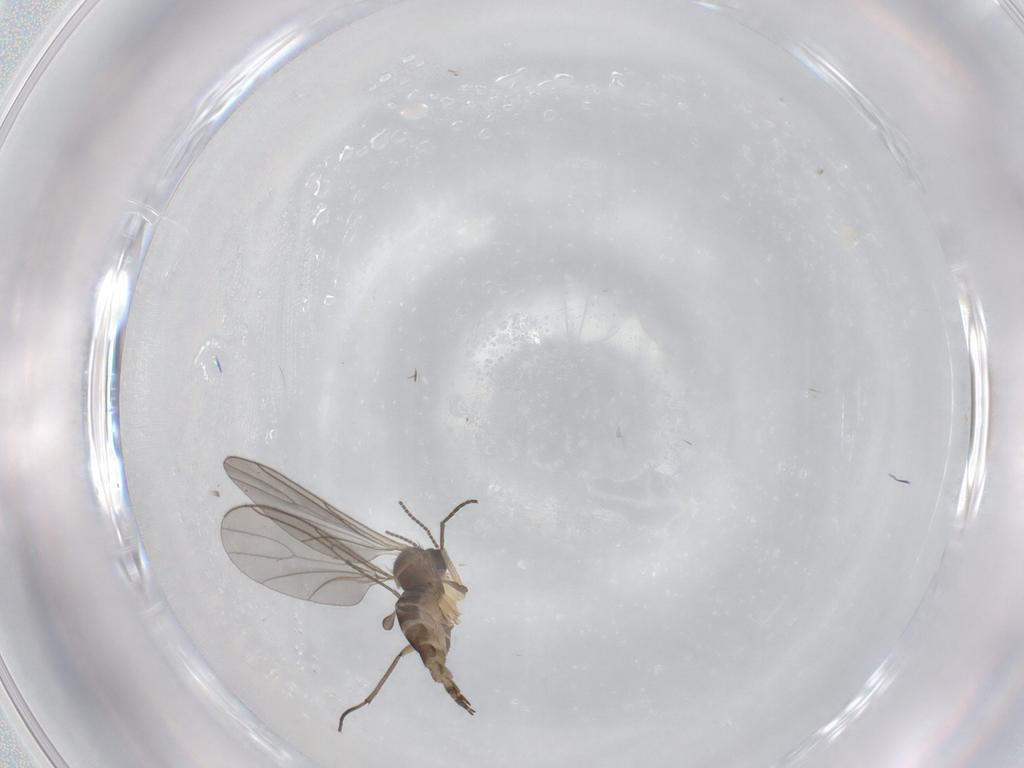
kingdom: Animalia
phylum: Arthropoda
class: Insecta
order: Diptera
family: Sciaridae
